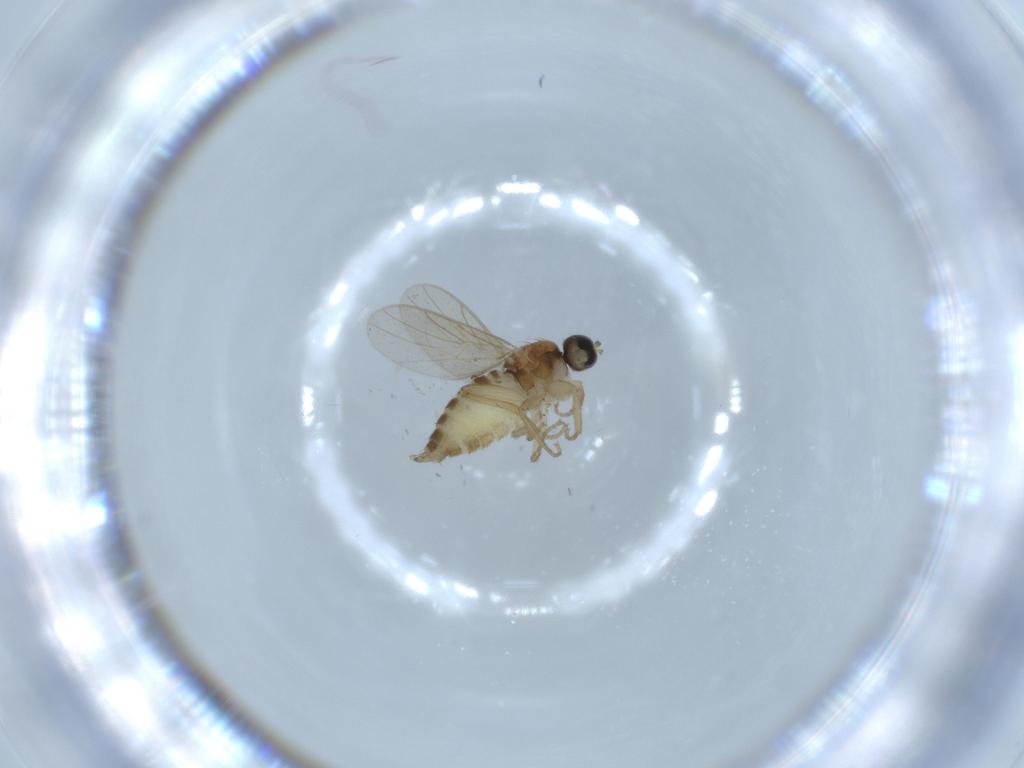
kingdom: Animalia
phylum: Arthropoda
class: Insecta
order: Diptera
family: Hybotidae
